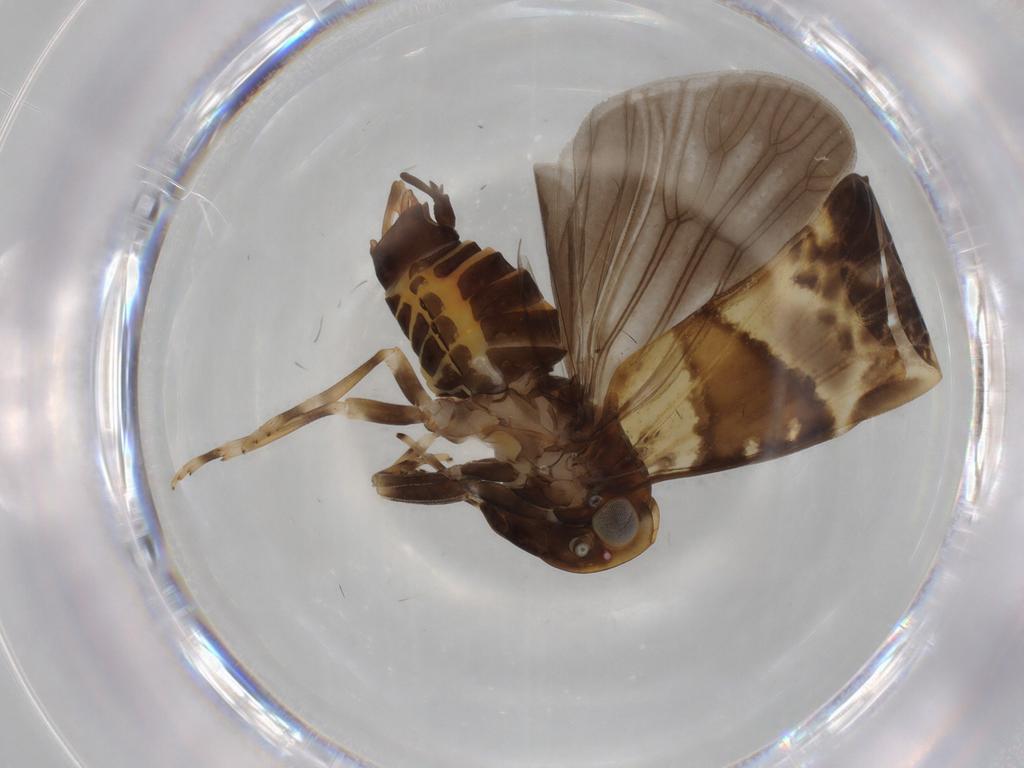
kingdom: Animalia
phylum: Arthropoda
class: Insecta
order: Hemiptera
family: Cixiidae
